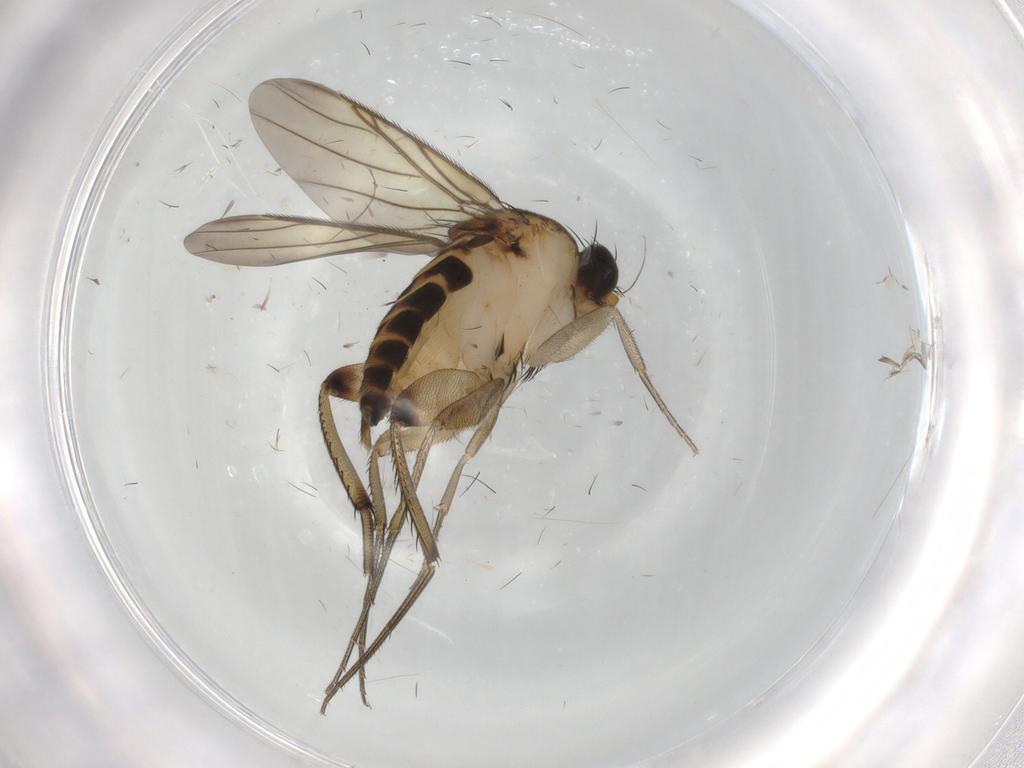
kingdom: Animalia
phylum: Arthropoda
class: Insecta
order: Diptera
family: Phoridae
